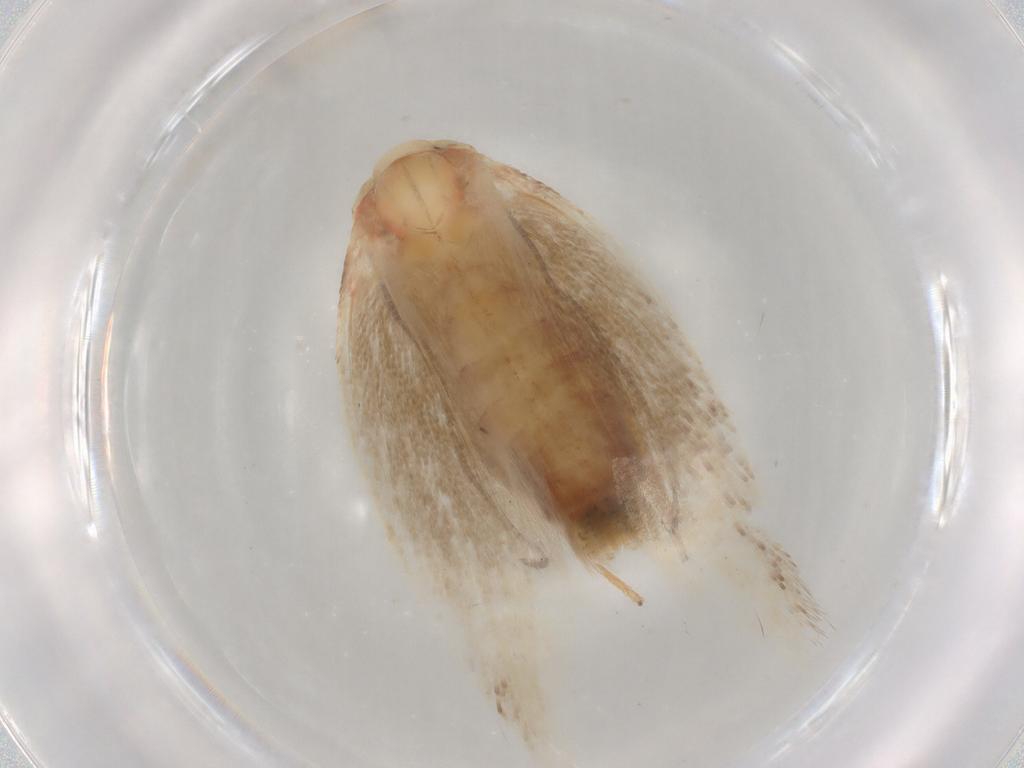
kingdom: Animalia
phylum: Arthropoda
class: Insecta
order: Lepidoptera
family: Geometridae
